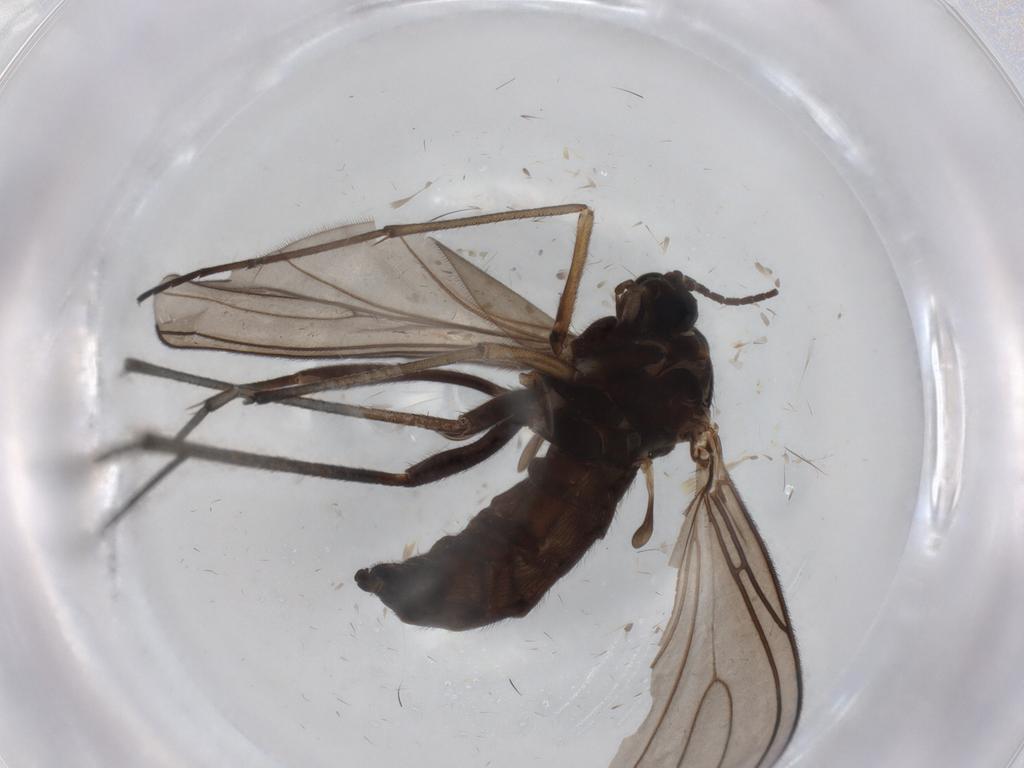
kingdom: Animalia
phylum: Arthropoda
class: Insecta
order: Diptera
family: Sciaridae
